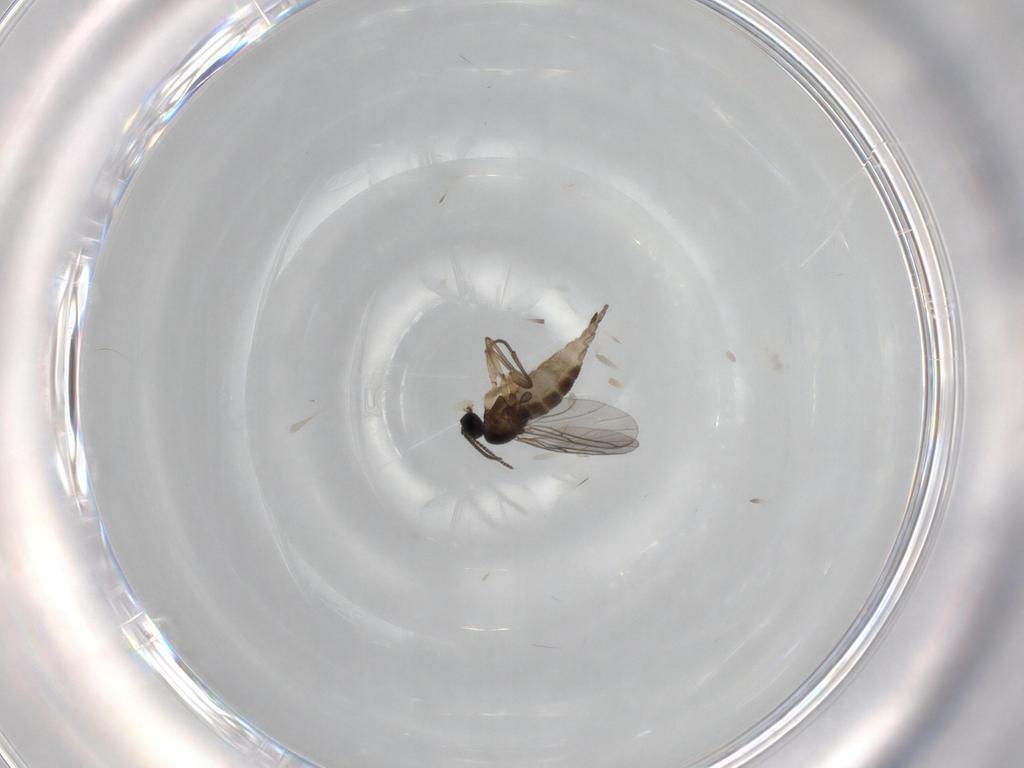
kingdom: Animalia
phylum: Arthropoda
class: Insecta
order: Diptera
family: Sciaridae
